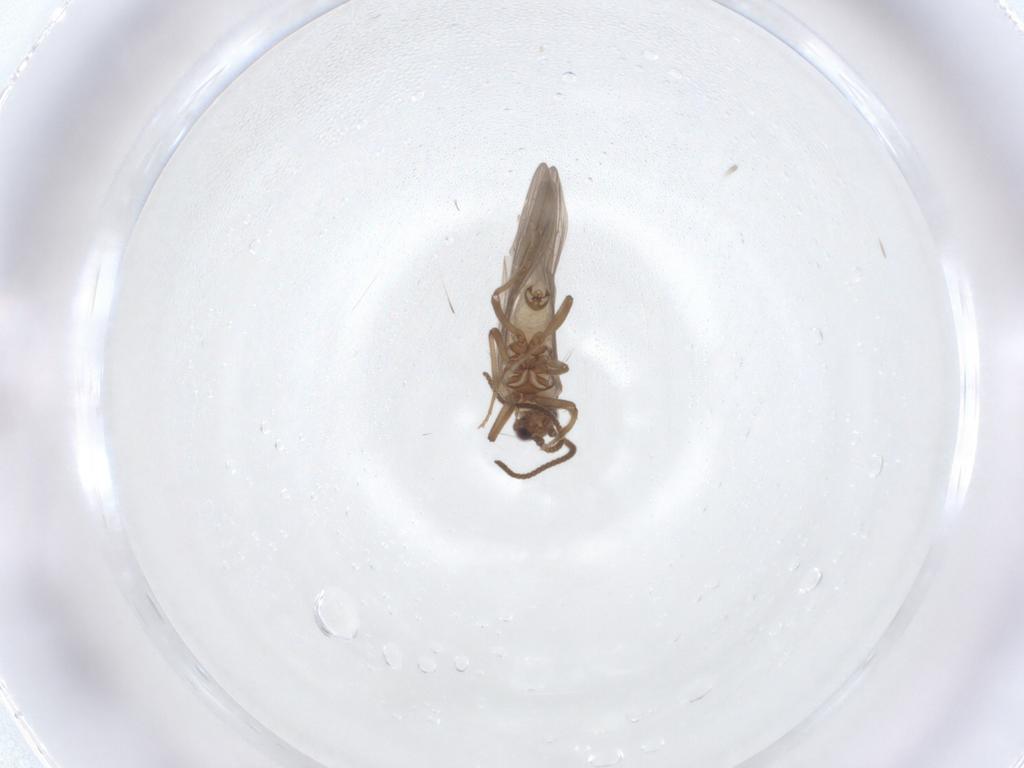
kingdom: Animalia
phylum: Arthropoda
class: Insecta
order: Neuroptera
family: Coniopterygidae
